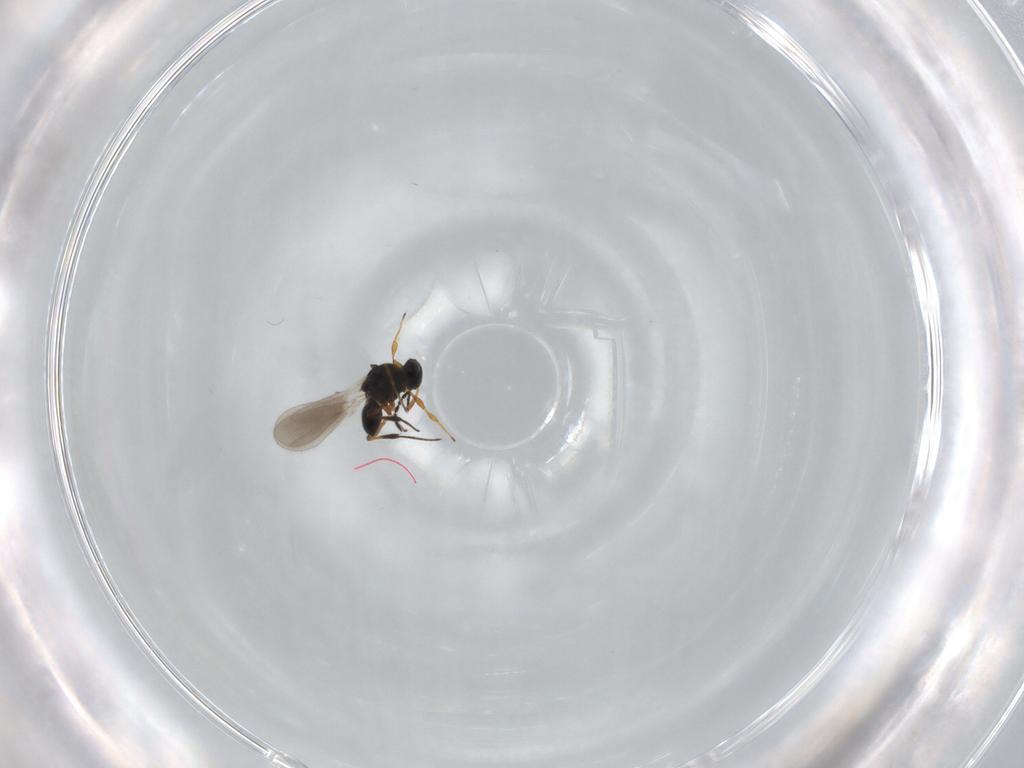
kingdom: Animalia
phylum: Arthropoda
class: Insecta
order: Hymenoptera
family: Platygastridae
